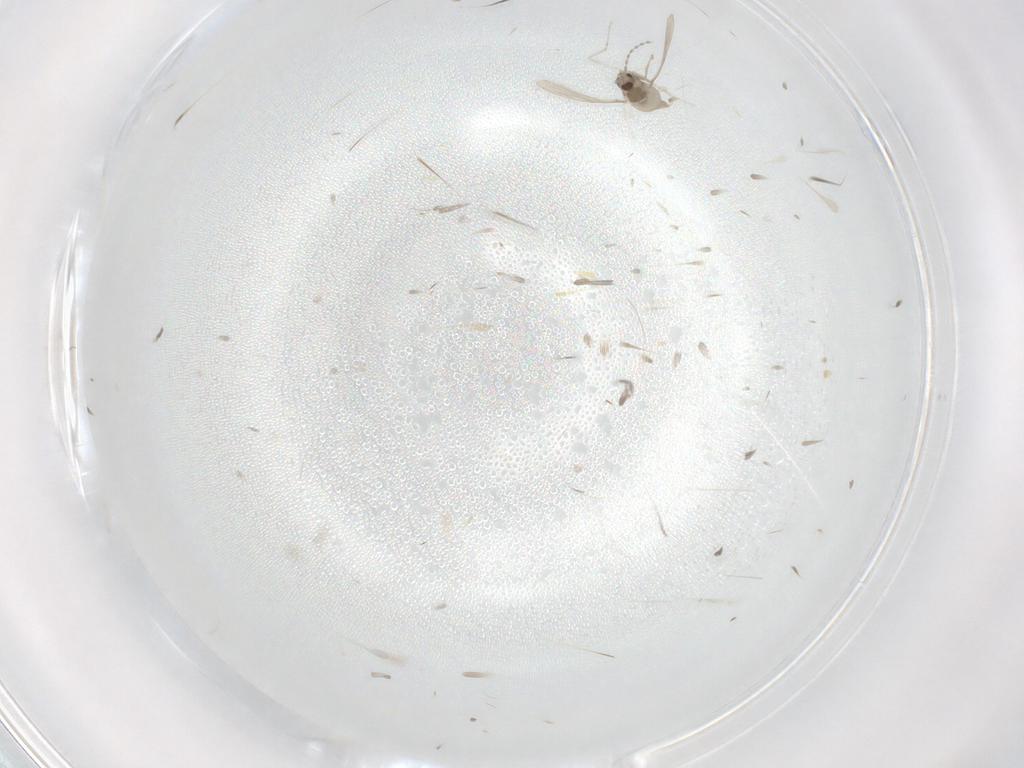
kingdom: Animalia
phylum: Arthropoda
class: Insecta
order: Diptera
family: Cecidomyiidae
